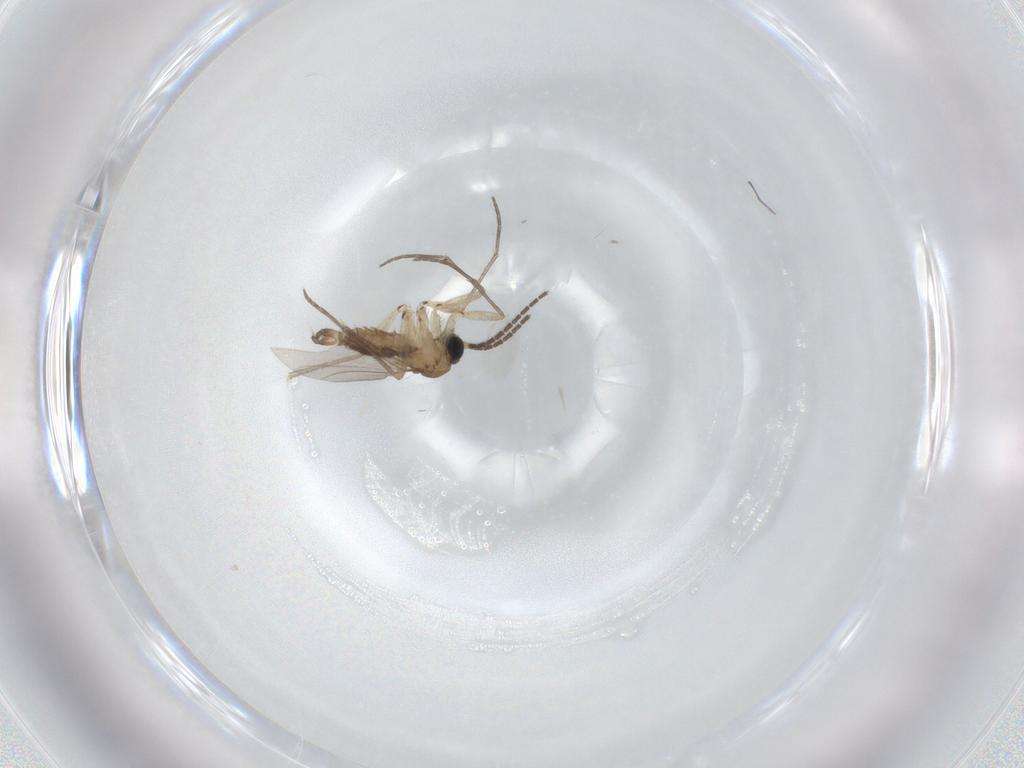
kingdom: Animalia
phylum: Arthropoda
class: Insecta
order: Diptera
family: Sciaridae
